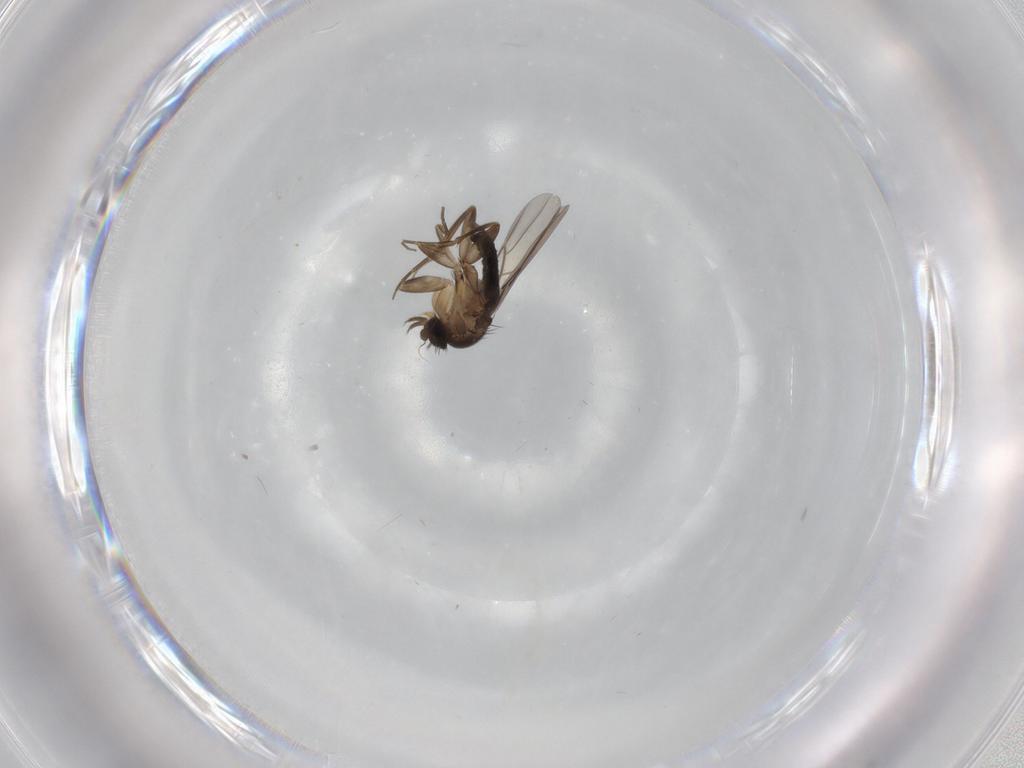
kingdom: Animalia
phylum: Arthropoda
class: Insecta
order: Diptera
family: Phoridae
